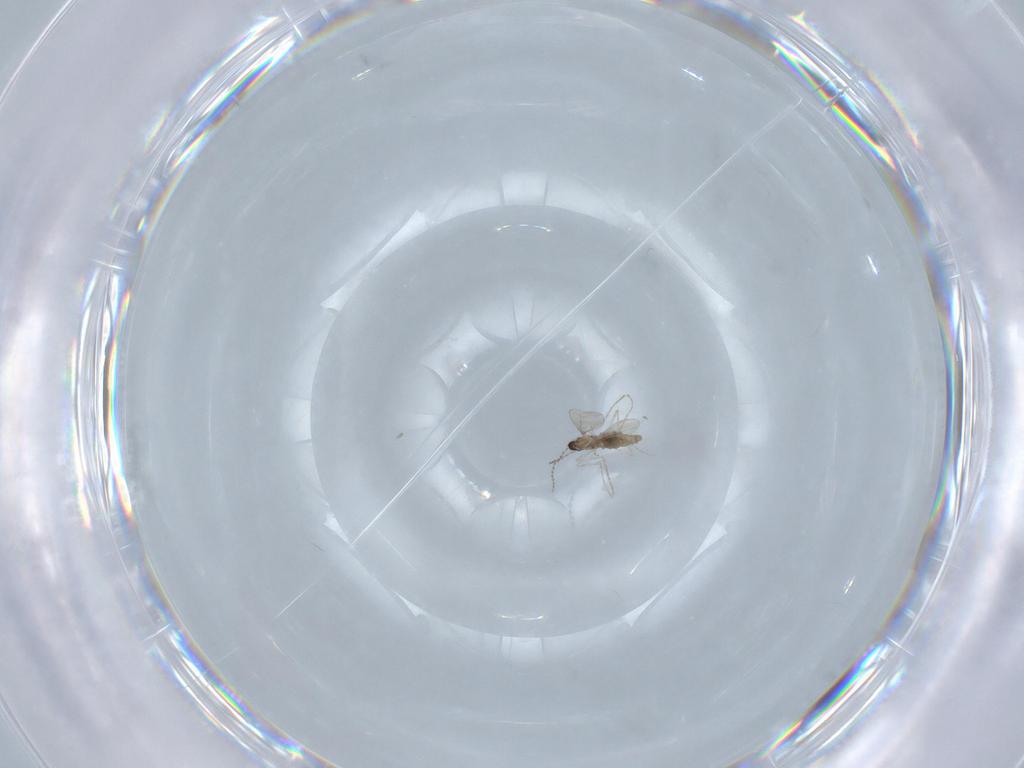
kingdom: Animalia
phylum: Arthropoda
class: Insecta
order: Diptera
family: Cecidomyiidae
